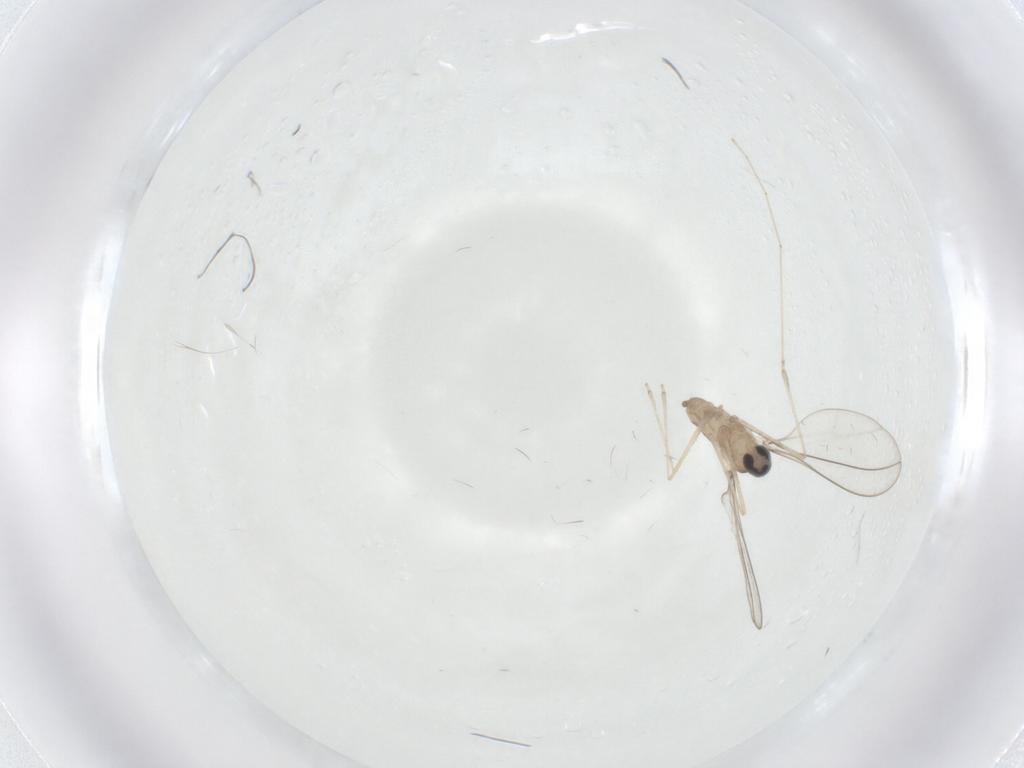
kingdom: Animalia
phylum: Arthropoda
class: Insecta
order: Diptera
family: Cecidomyiidae
